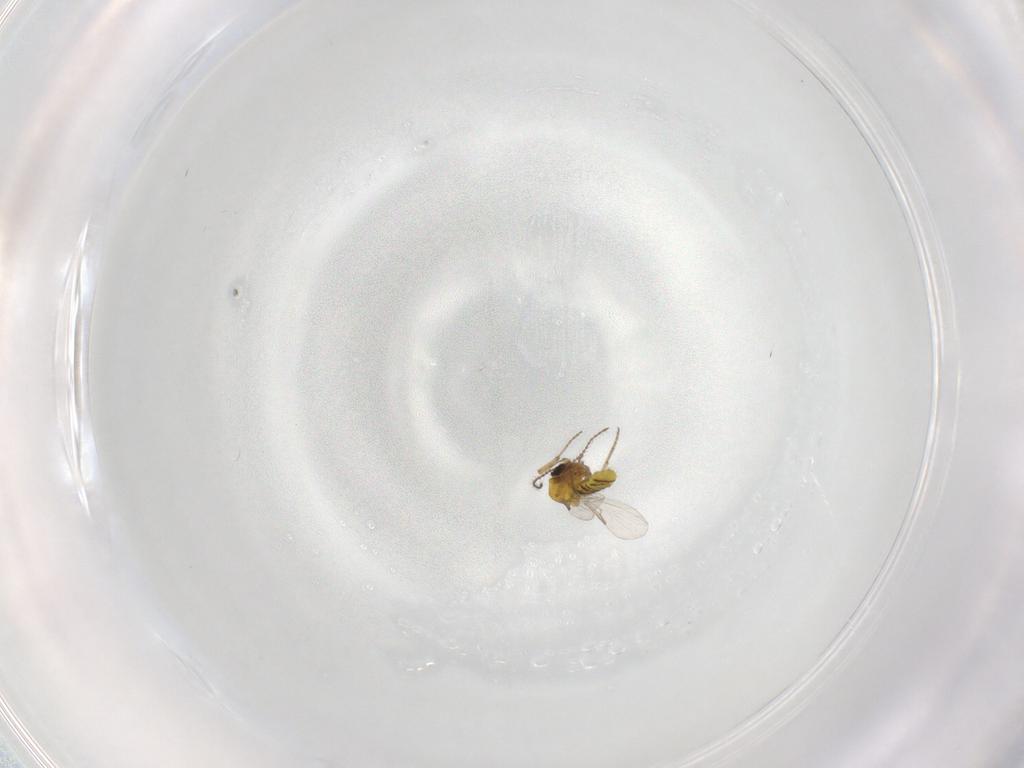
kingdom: Animalia
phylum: Arthropoda
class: Insecta
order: Diptera
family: Ceratopogonidae
